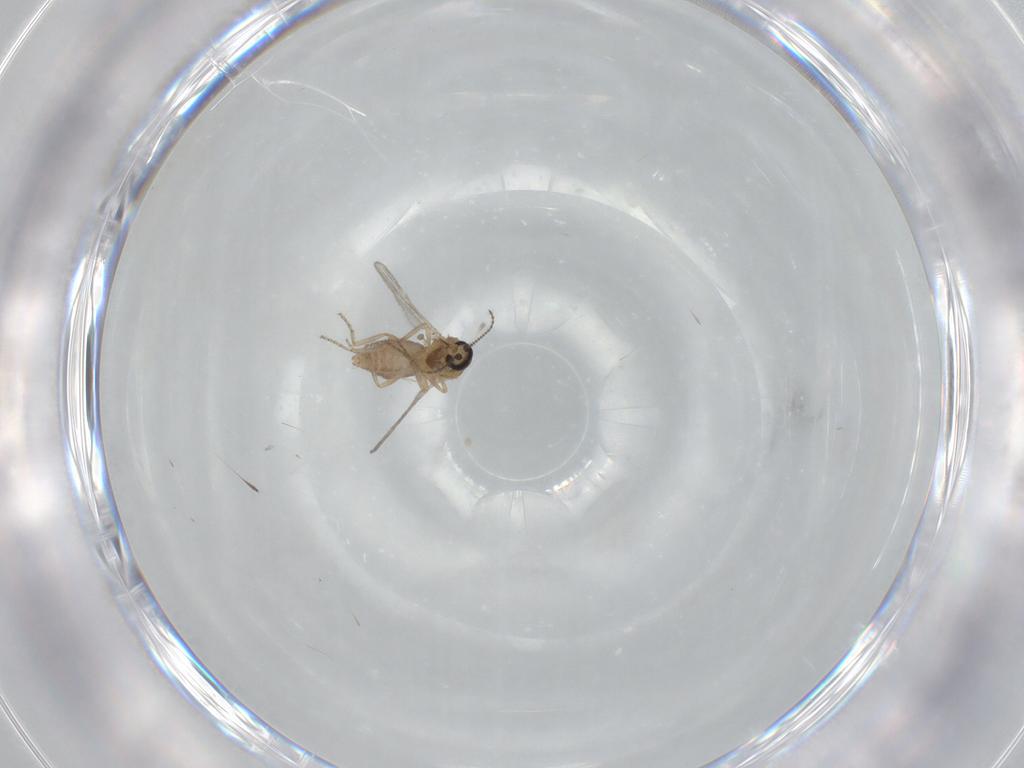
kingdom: Animalia
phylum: Arthropoda
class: Insecta
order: Diptera
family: Ceratopogonidae
